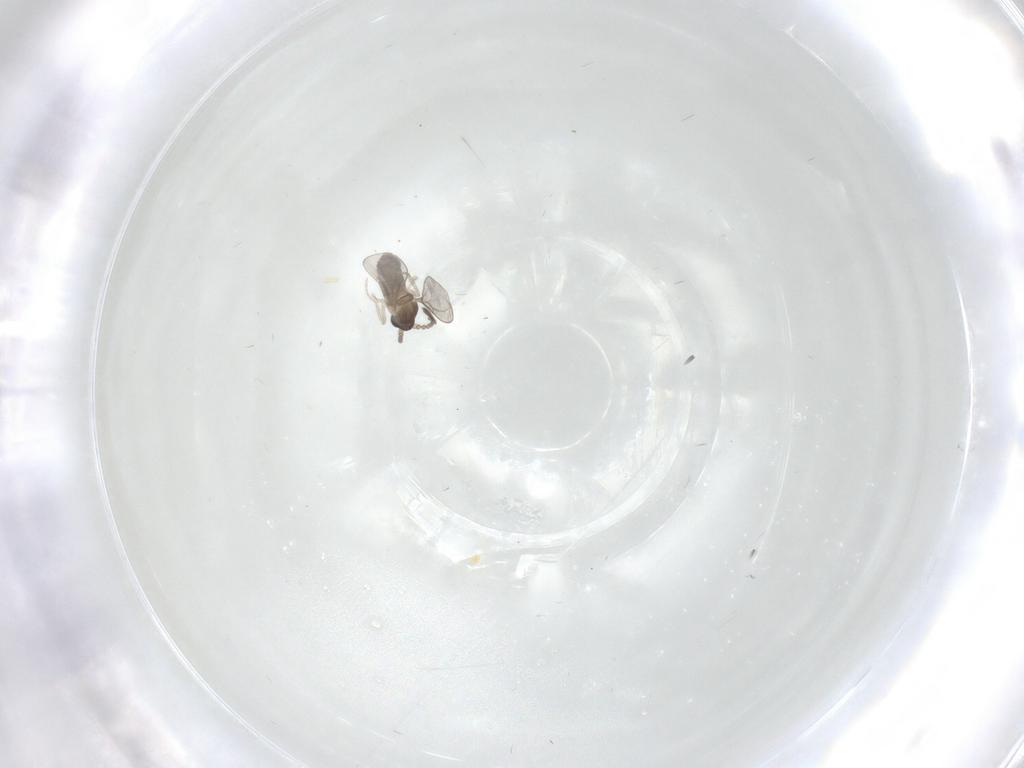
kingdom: Animalia
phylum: Arthropoda
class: Insecta
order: Diptera
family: Cecidomyiidae
